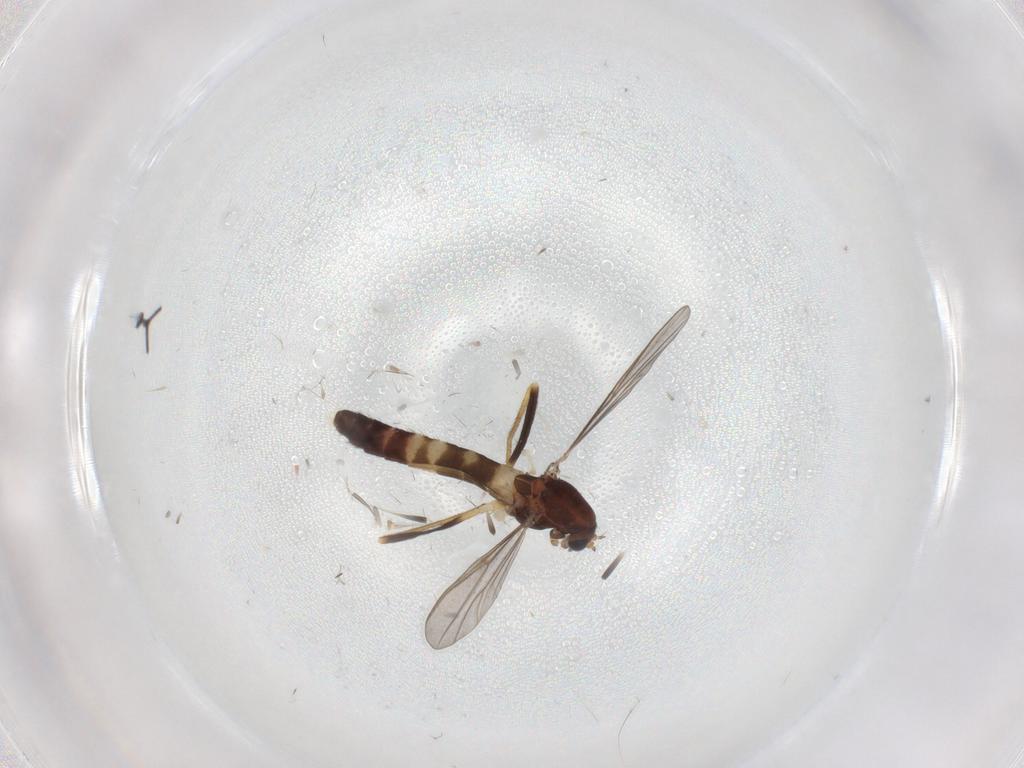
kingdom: Animalia
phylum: Arthropoda
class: Insecta
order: Diptera
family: Chironomidae
